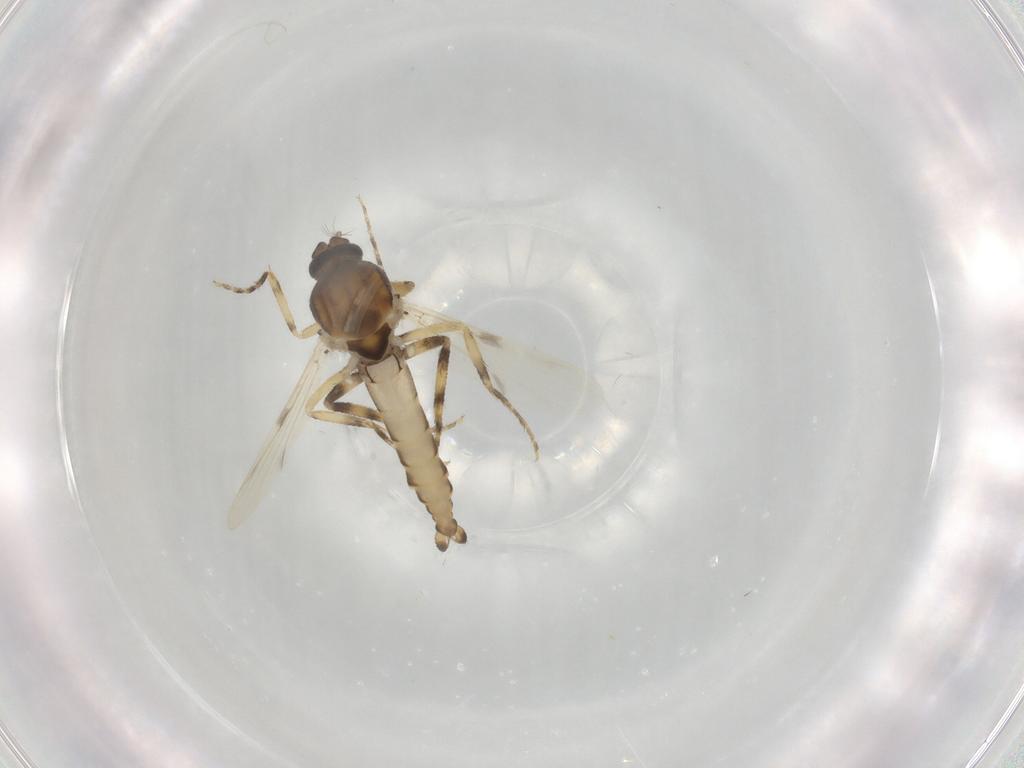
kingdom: Animalia
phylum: Arthropoda
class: Insecta
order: Diptera
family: Ceratopogonidae
